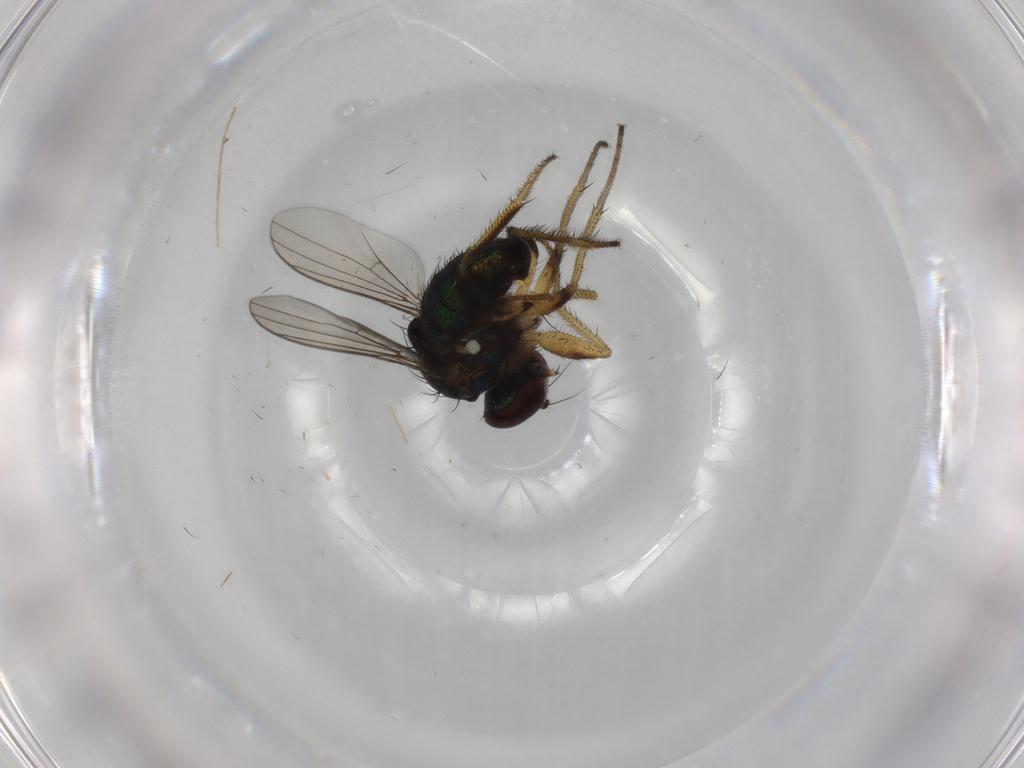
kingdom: Animalia
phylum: Arthropoda
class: Insecta
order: Diptera
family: Dolichopodidae
